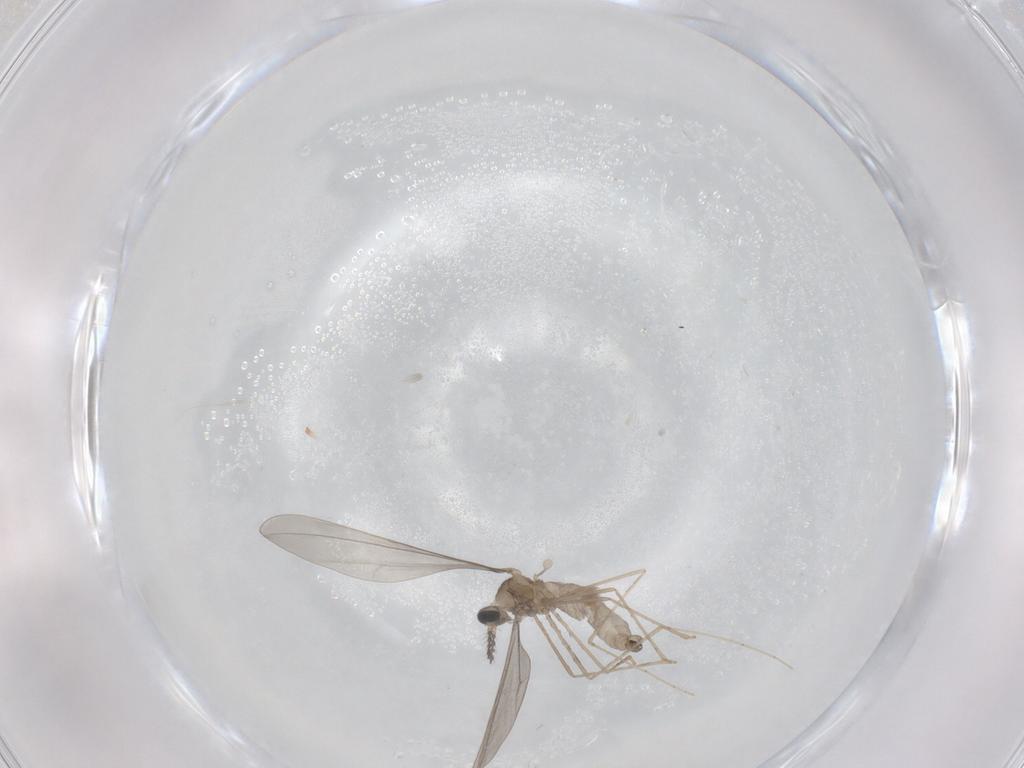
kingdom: Animalia
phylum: Arthropoda
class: Insecta
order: Diptera
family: Cecidomyiidae
